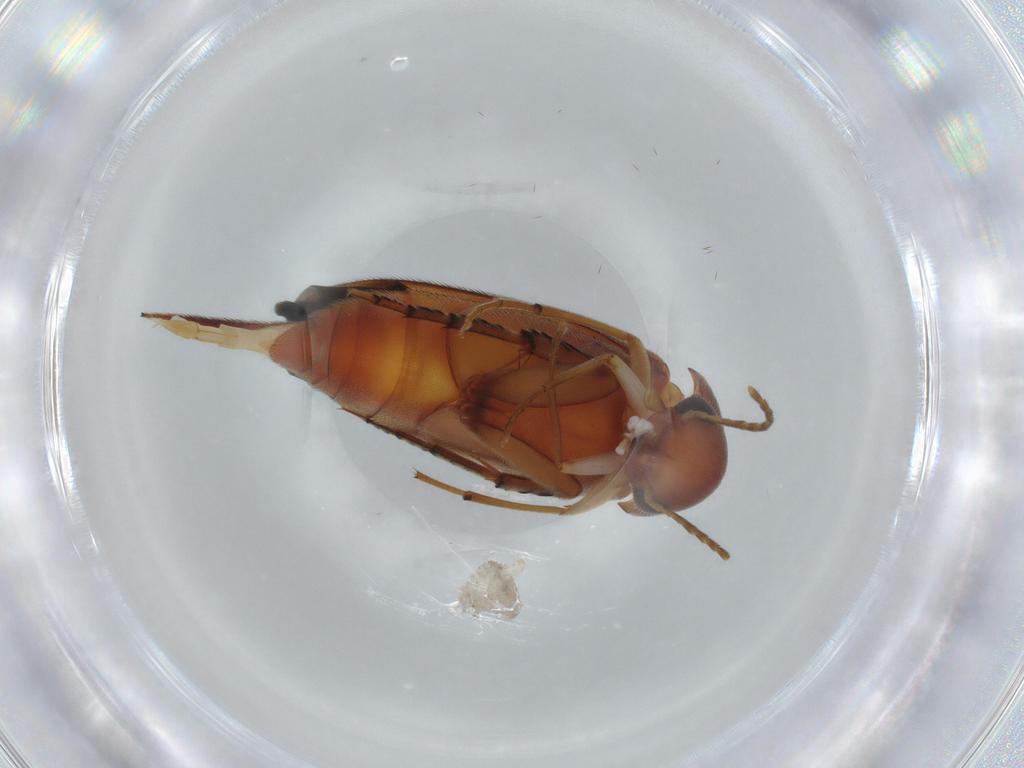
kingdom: Animalia
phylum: Arthropoda
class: Insecta
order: Coleoptera
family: Mordellidae
